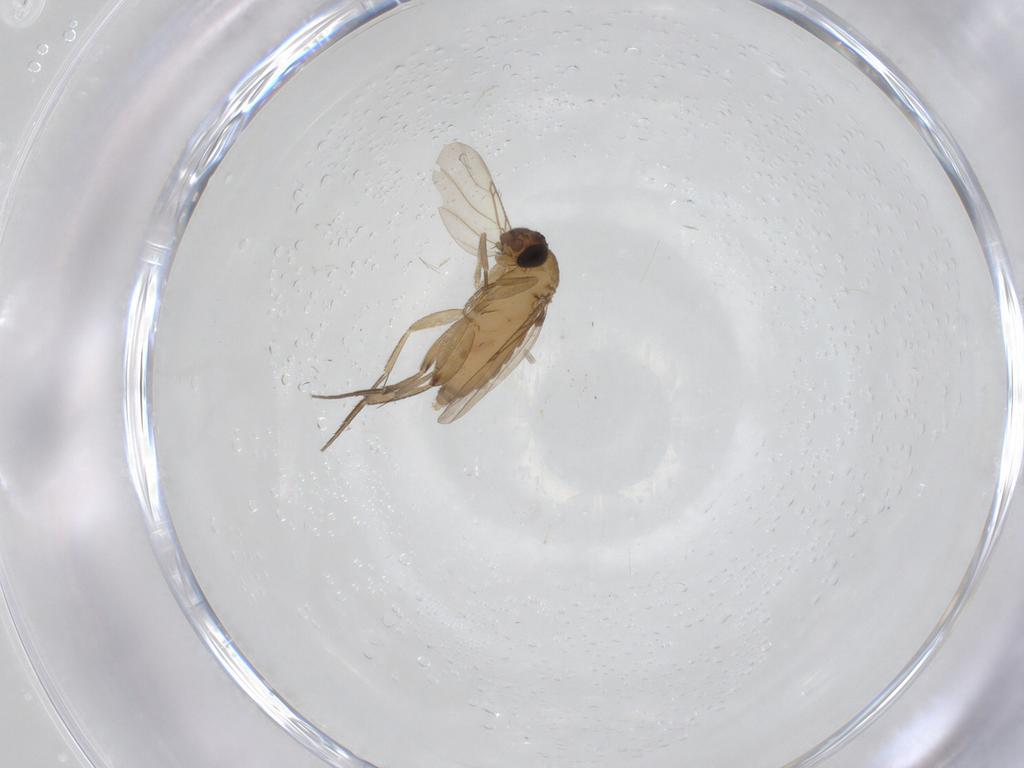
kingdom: Animalia
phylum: Arthropoda
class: Insecta
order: Diptera
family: Phoridae
